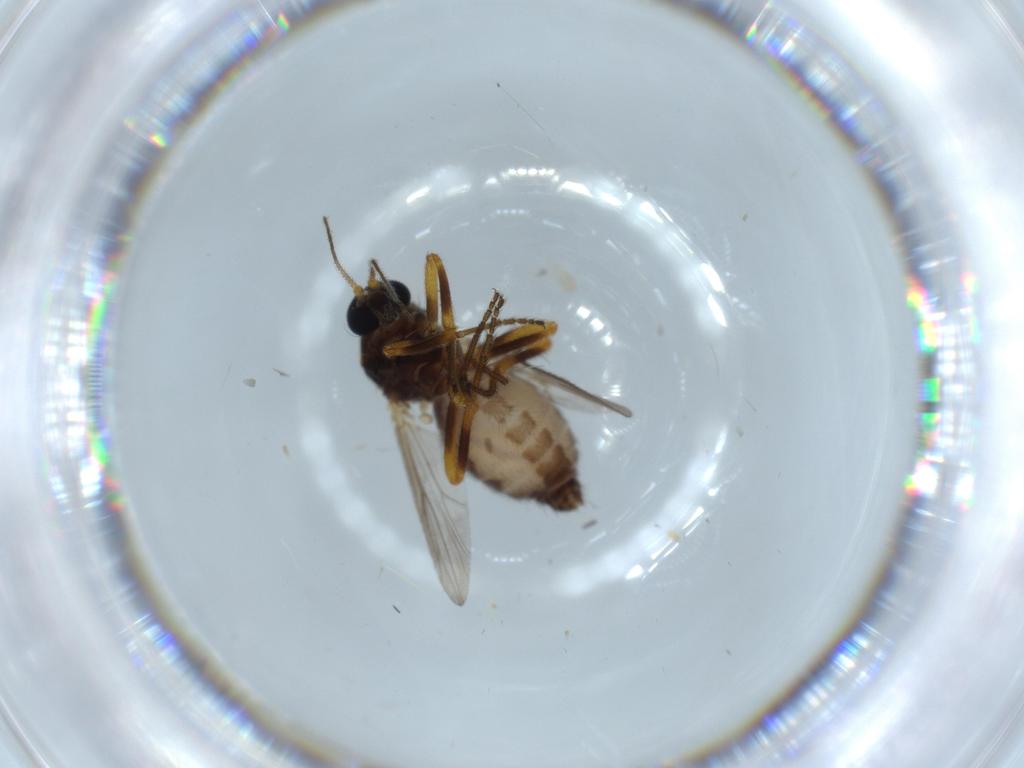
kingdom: Animalia
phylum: Arthropoda
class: Insecta
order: Diptera
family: Ceratopogonidae
